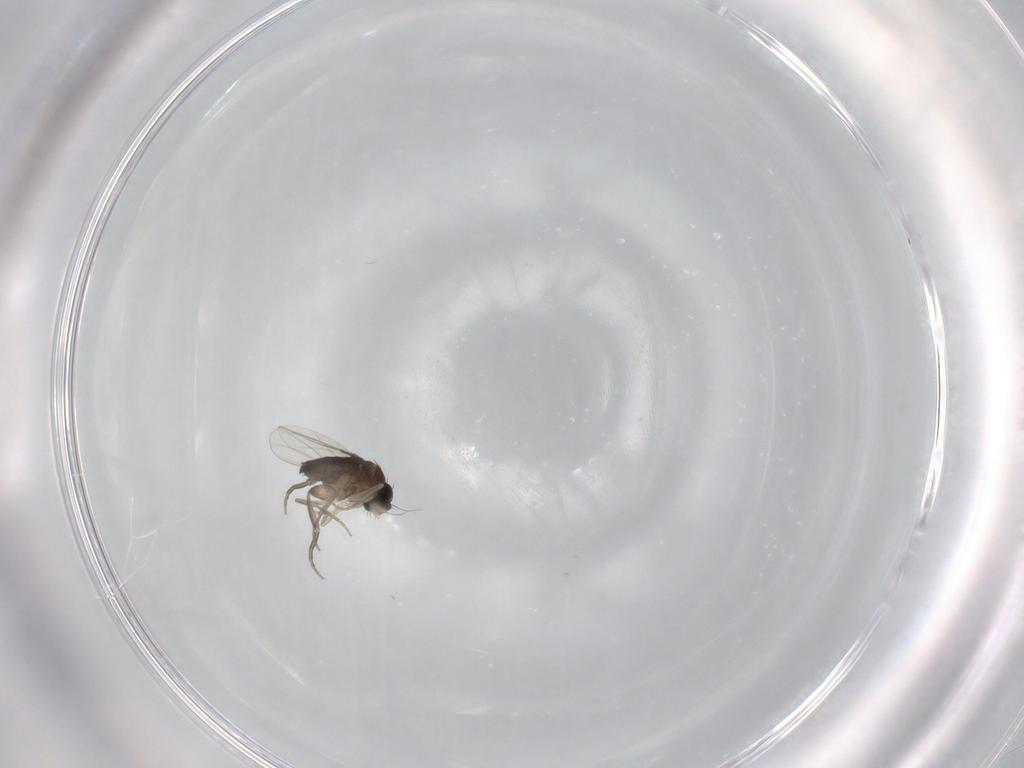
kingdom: Animalia
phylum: Arthropoda
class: Insecta
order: Diptera
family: Phoridae
